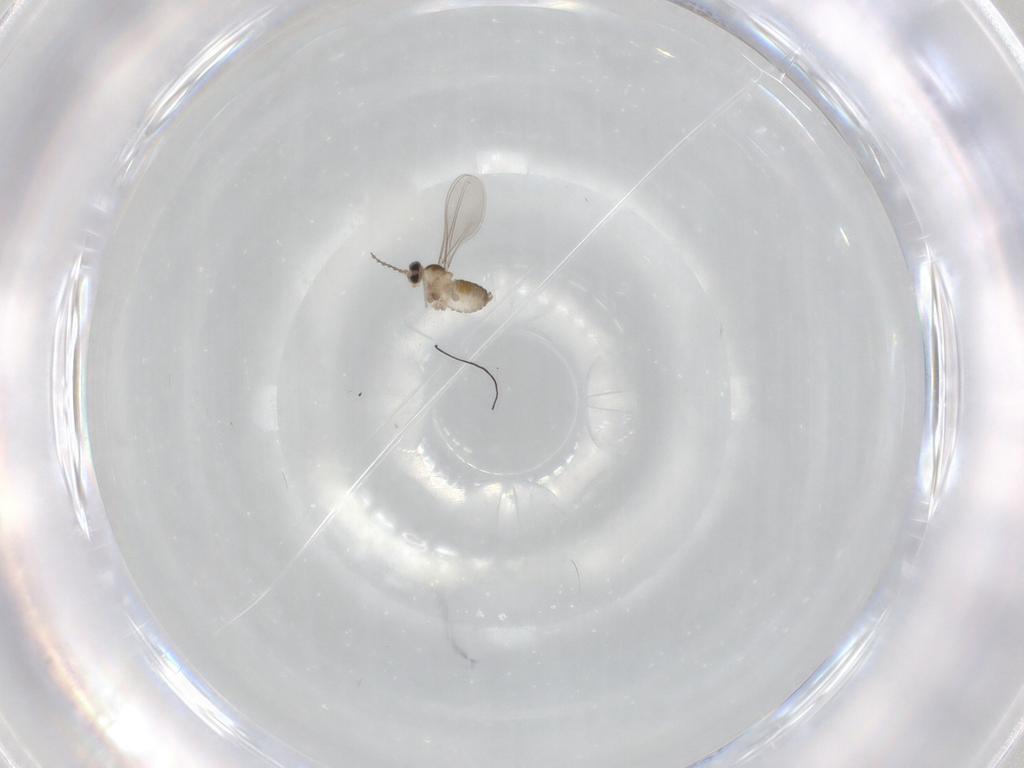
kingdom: Animalia
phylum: Arthropoda
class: Insecta
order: Diptera
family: Cecidomyiidae
